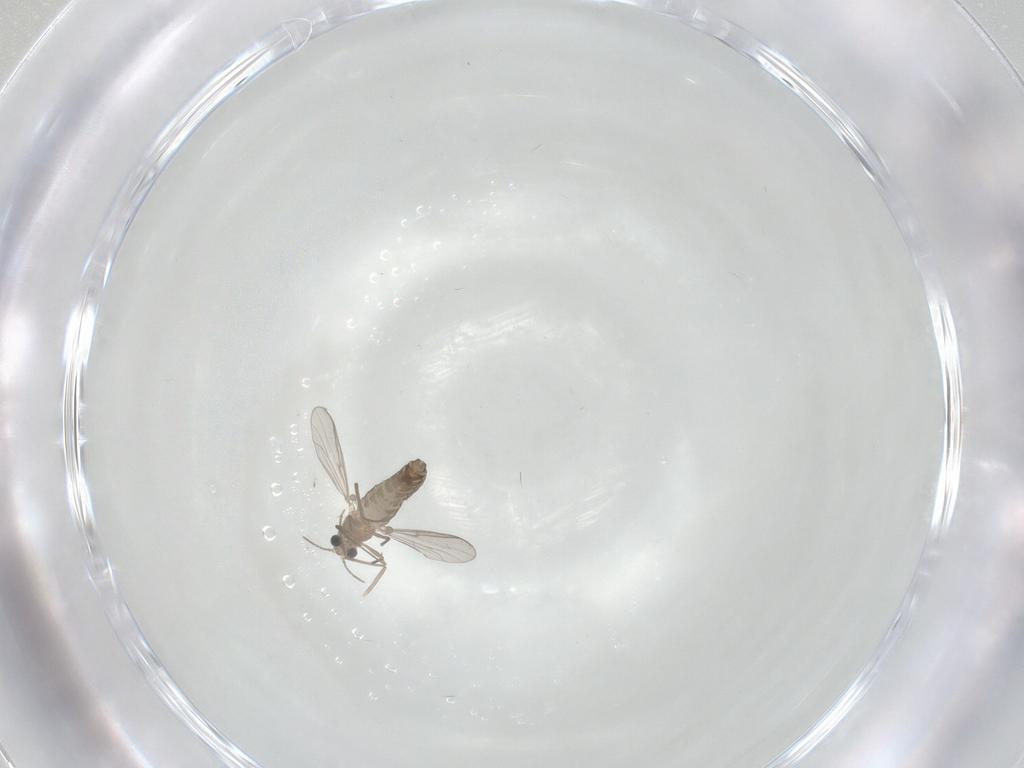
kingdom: Animalia
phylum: Arthropoda
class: Insecta
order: Diptera
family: Chironomidae
